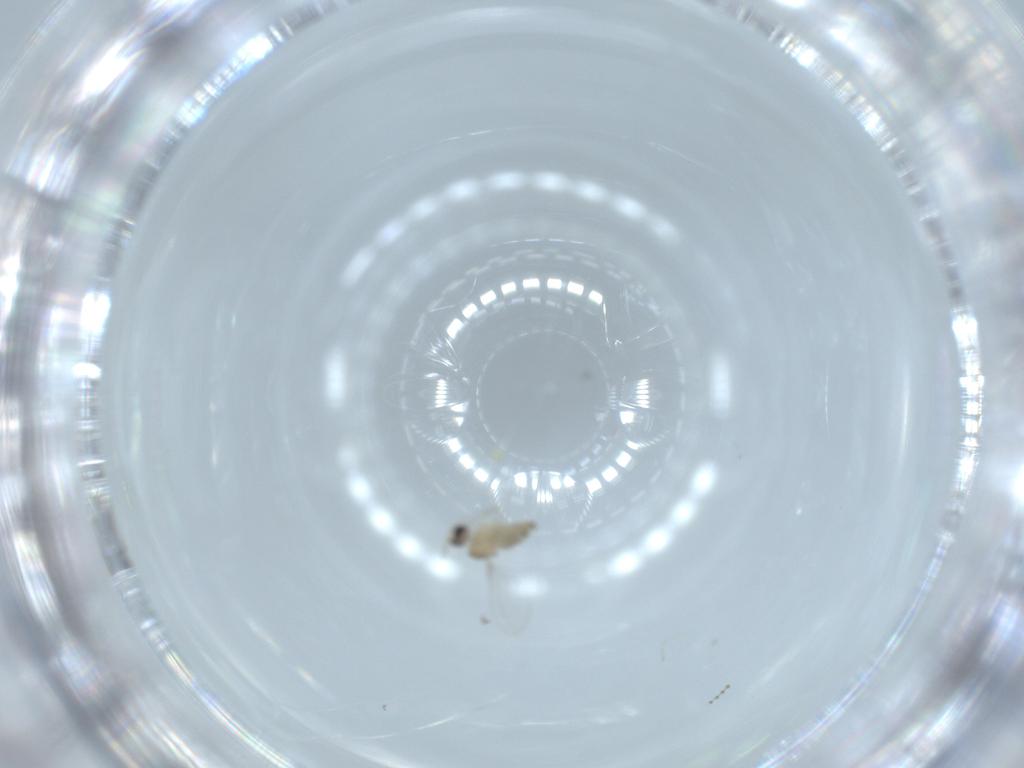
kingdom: Animalia
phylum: Arthropoda
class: Insecta
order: Diptera
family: Cecidomyiidae
